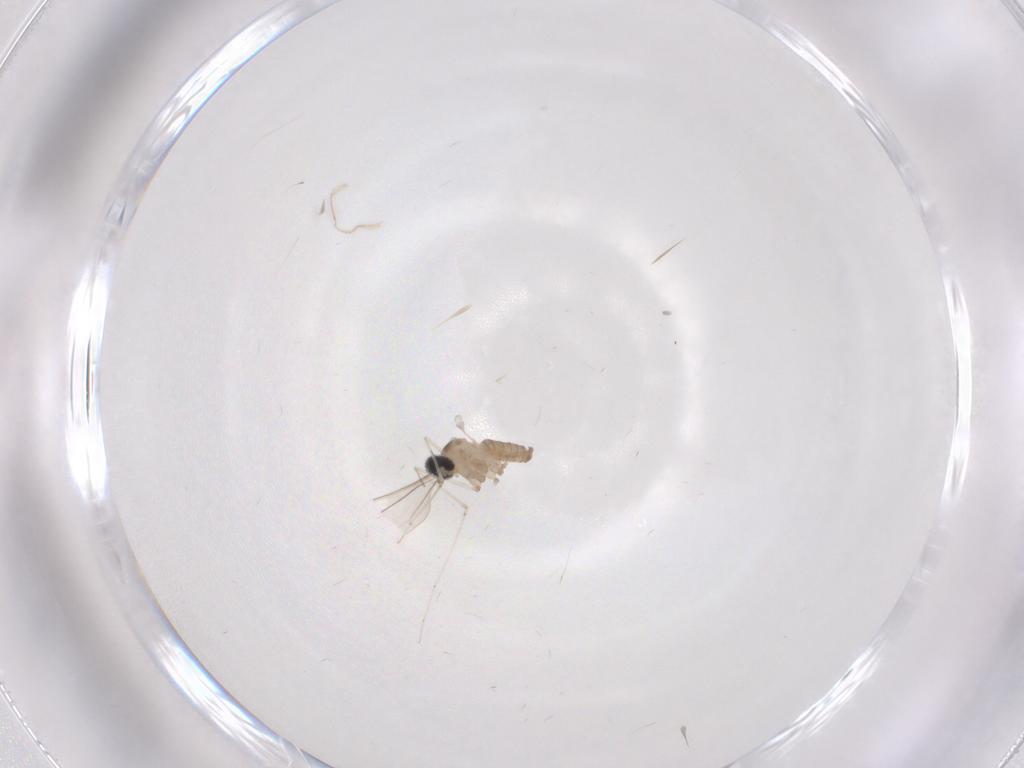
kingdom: Animalia
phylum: Arthropoda
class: Insecta
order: Diptera
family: Cecidomyiidae
